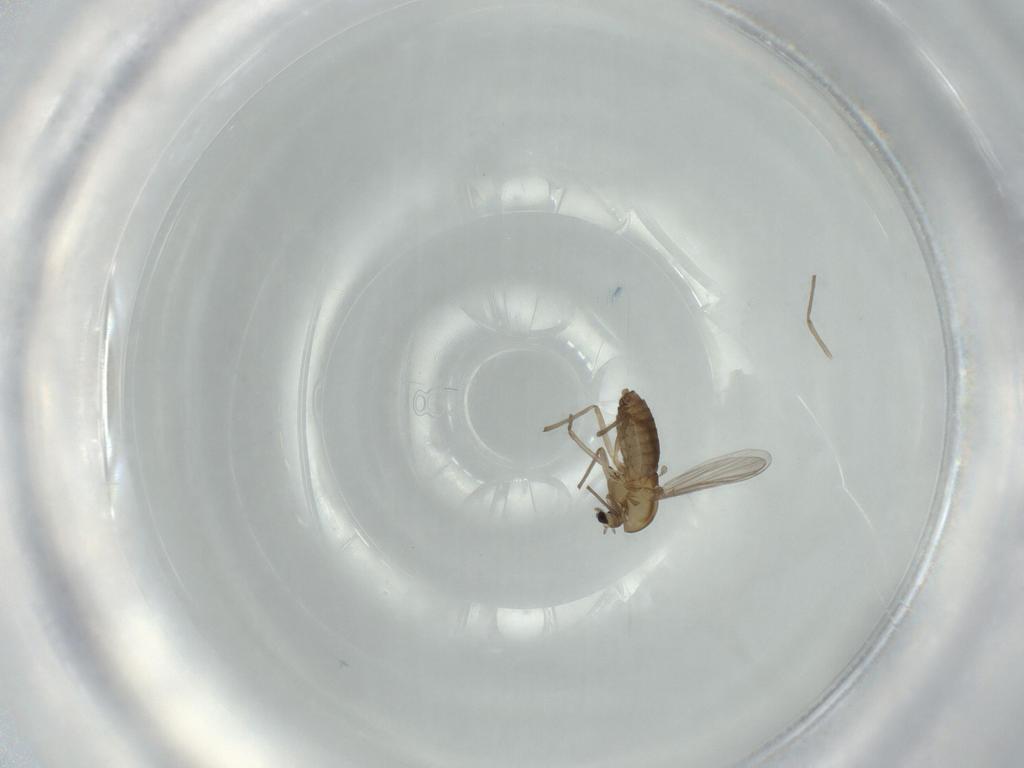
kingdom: Animalia
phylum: Arthropoda
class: Insecta
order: Diptera
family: Chironomidae
